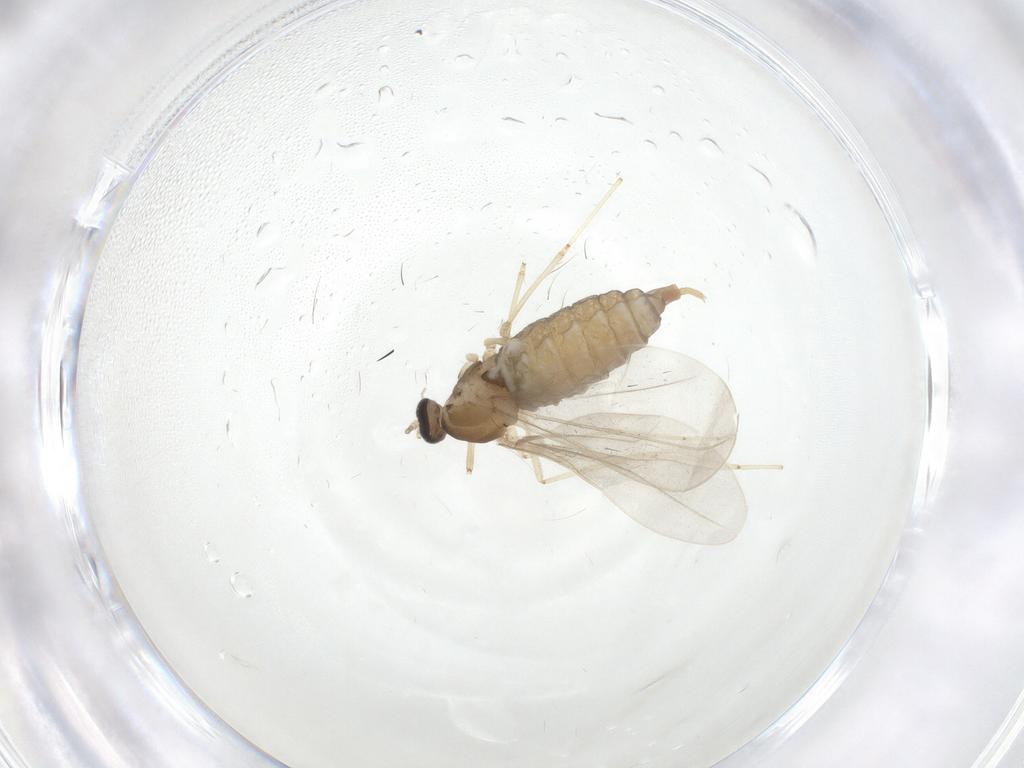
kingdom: Animalia
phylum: Arthropoda
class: Insecta
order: Diptera
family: Cecidomyiidae
